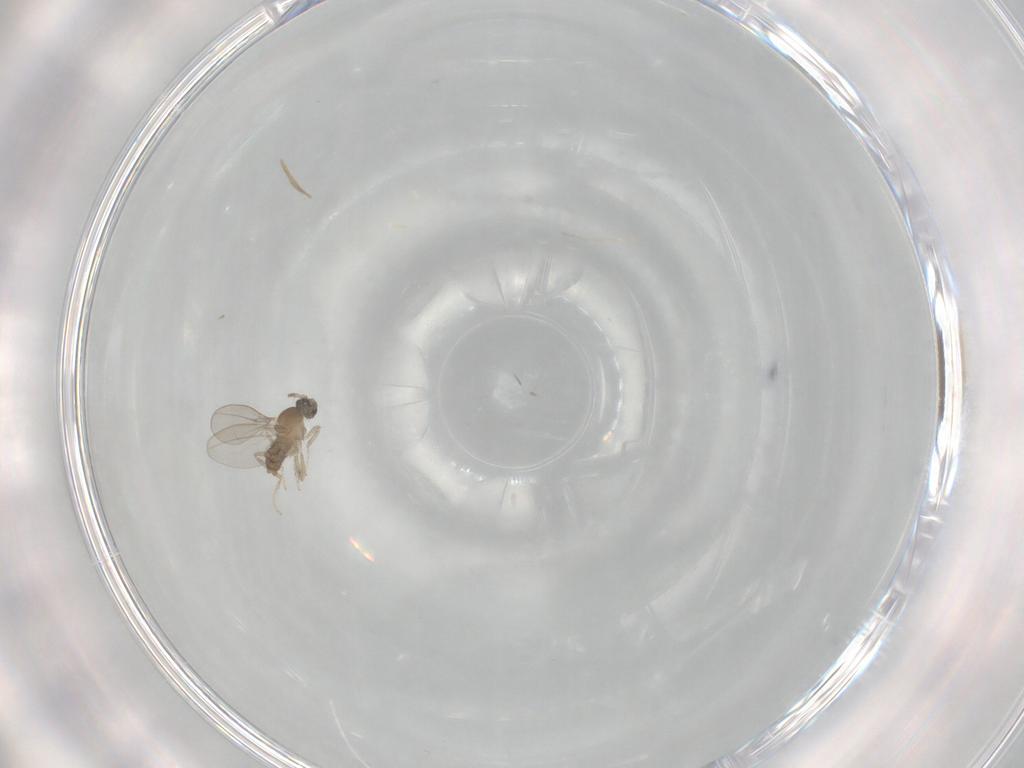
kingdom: Animalia
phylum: Arthropoda
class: Insecta
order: Diptera
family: Cecidomyiidae
